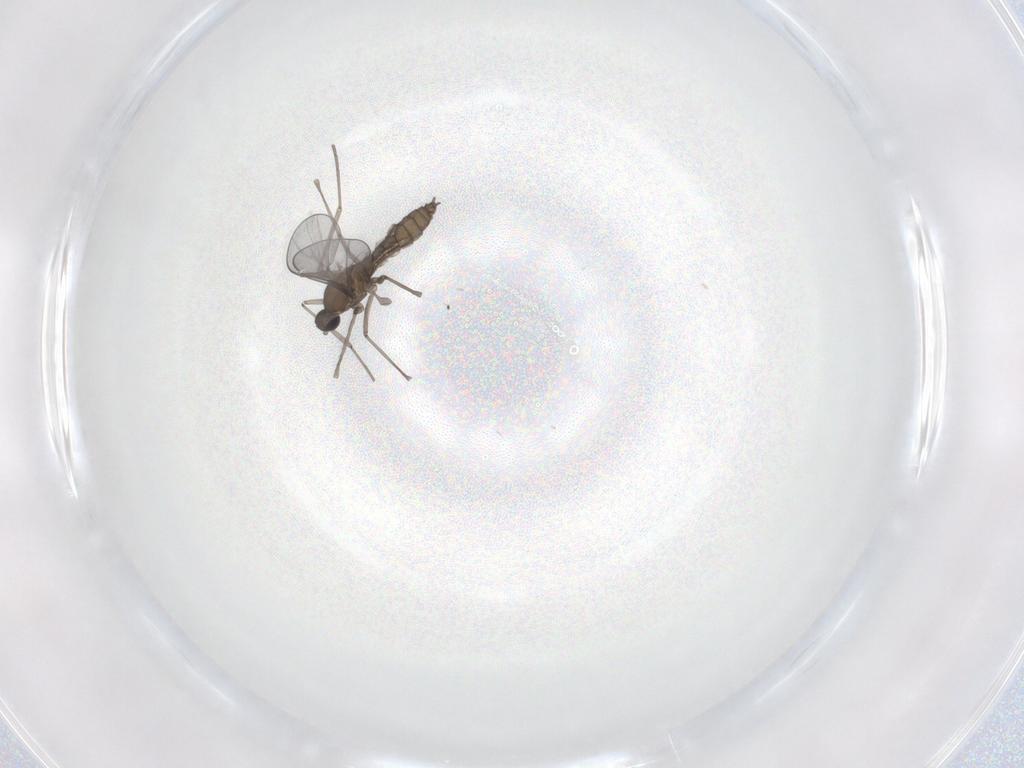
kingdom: Animalia
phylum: Arthropoda
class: Insecta
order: Diptera
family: Cecidomyiidae
